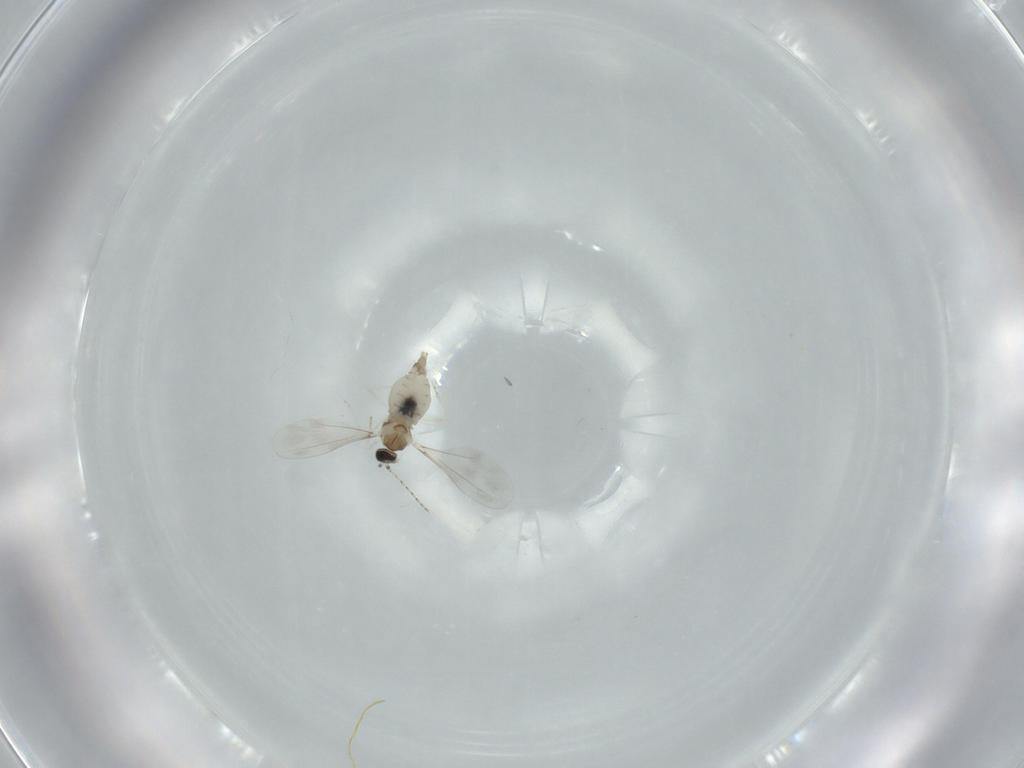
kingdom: Animalia
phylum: Arthropoda
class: Insecta
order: Diptera
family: Cecidomyiidae
